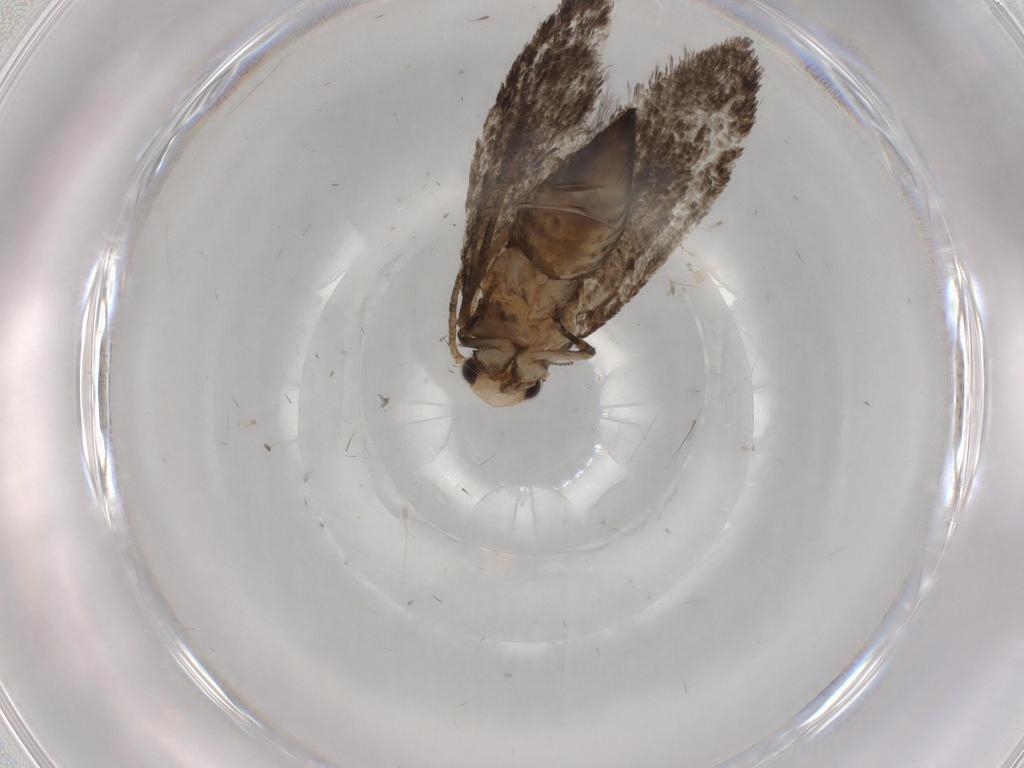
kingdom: Animalia
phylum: Arthropoda
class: Insecta
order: Lepidoptera
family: Tineidae
